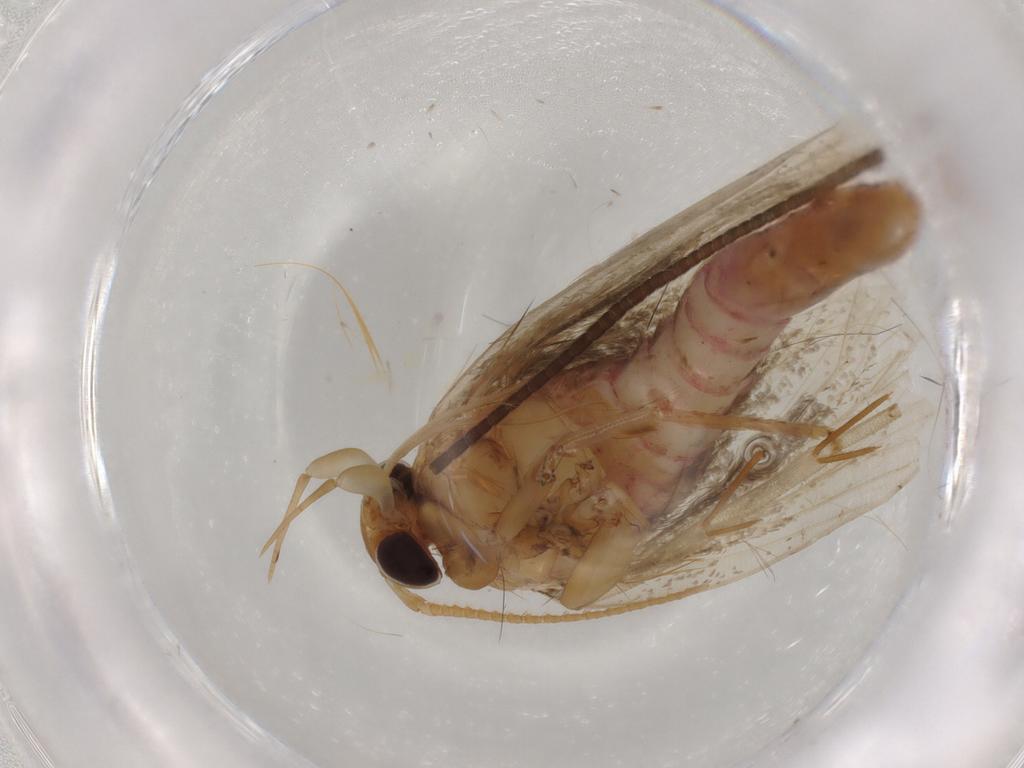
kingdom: Animalia
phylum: Arthropoda
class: Insecta
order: Lepidoptera
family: Lecithoceridae
